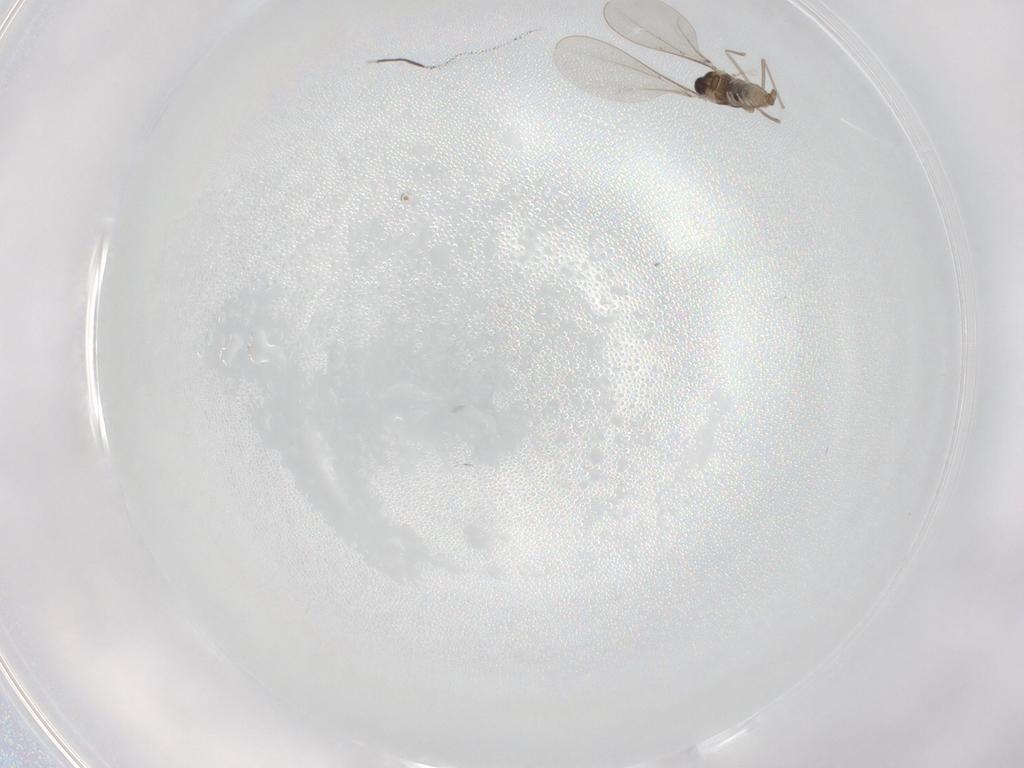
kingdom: Animalia
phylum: Arthropoda
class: Insecta
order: Diptera
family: Cecidomyiidae
